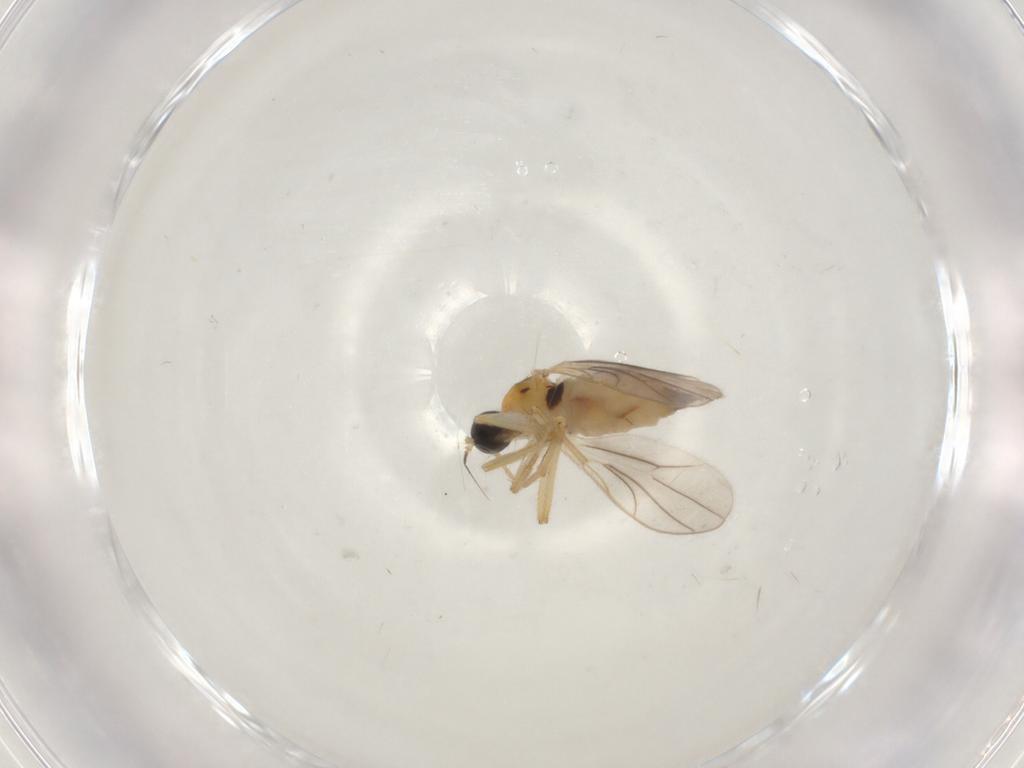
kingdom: Animalia
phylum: Arthropoda
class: Insecta
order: Diptera
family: Hybotidae
